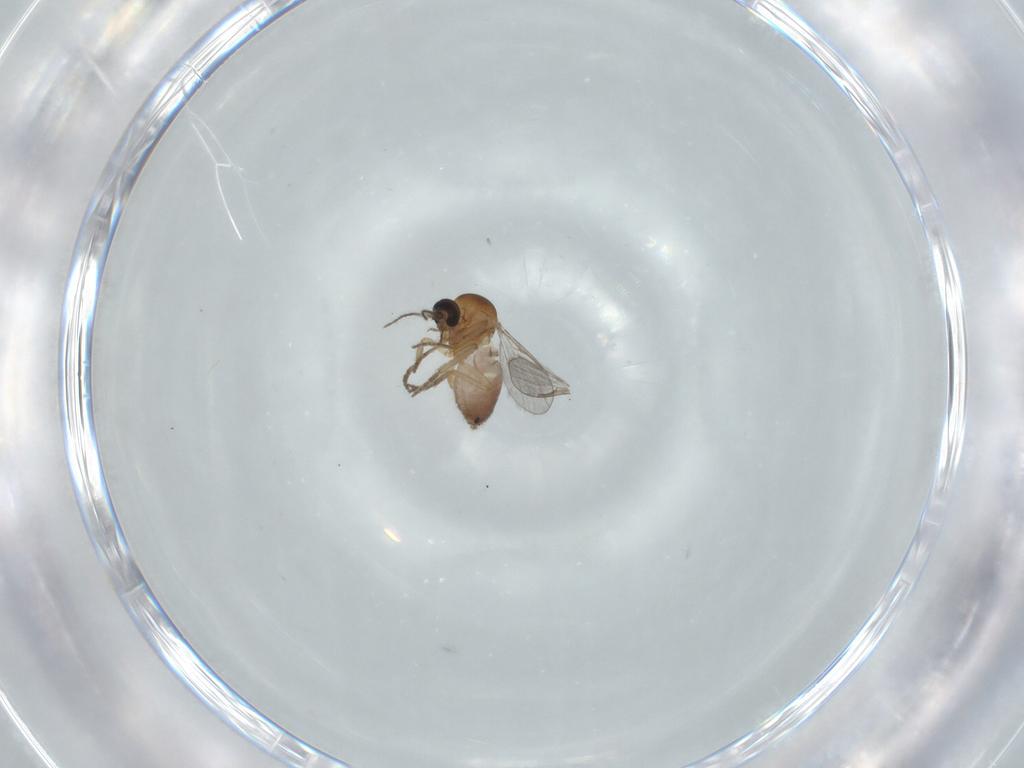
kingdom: Animalia
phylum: Arthropoda
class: Insecta
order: Diptera
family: Ceratopogonidae
